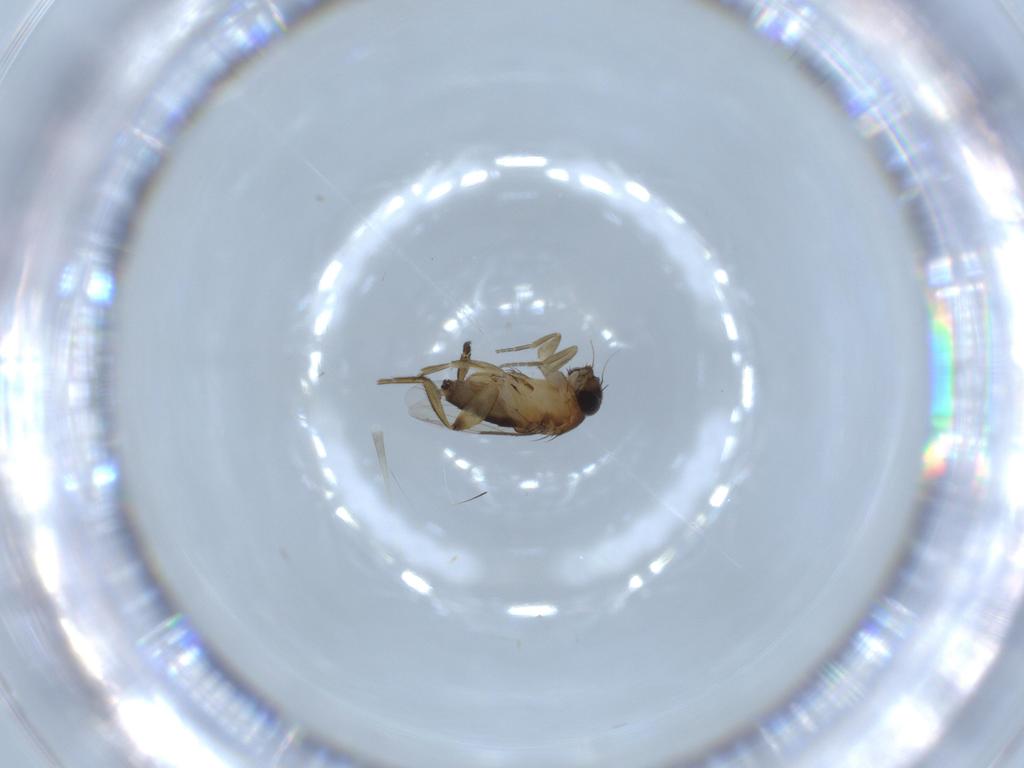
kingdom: Animalia
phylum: Arthropoda
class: Insecta
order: Diptera
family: Phoridae
